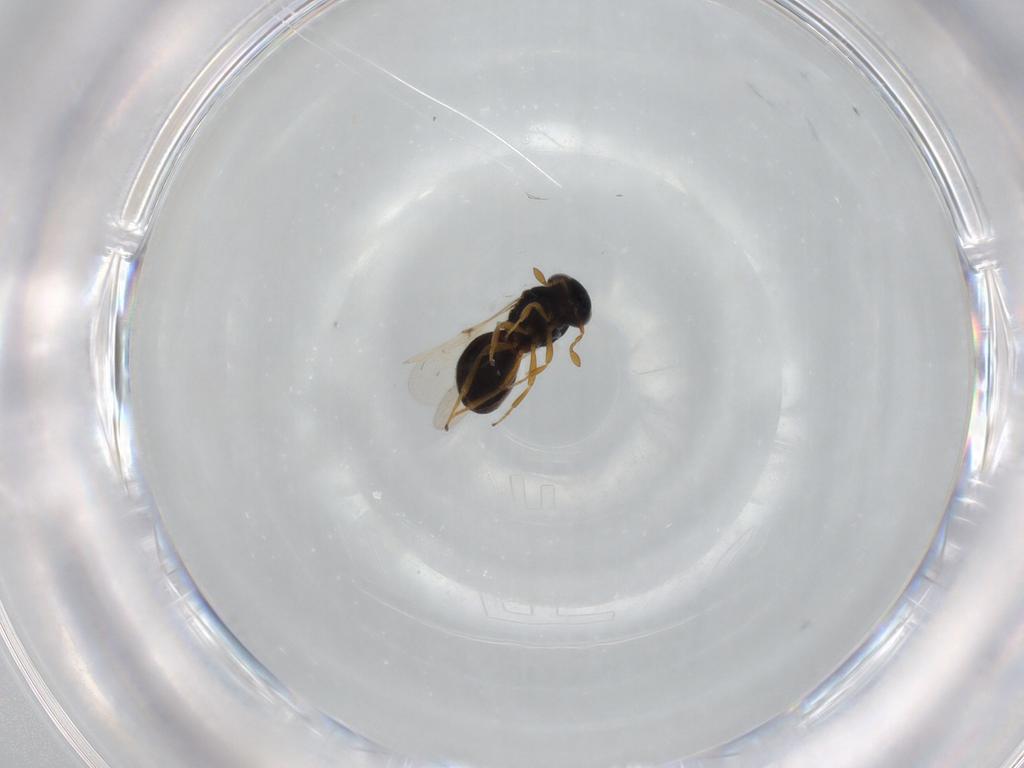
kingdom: Animalia
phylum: Arthropoda
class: Insecta
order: Hymenoptera
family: Scelionidae
